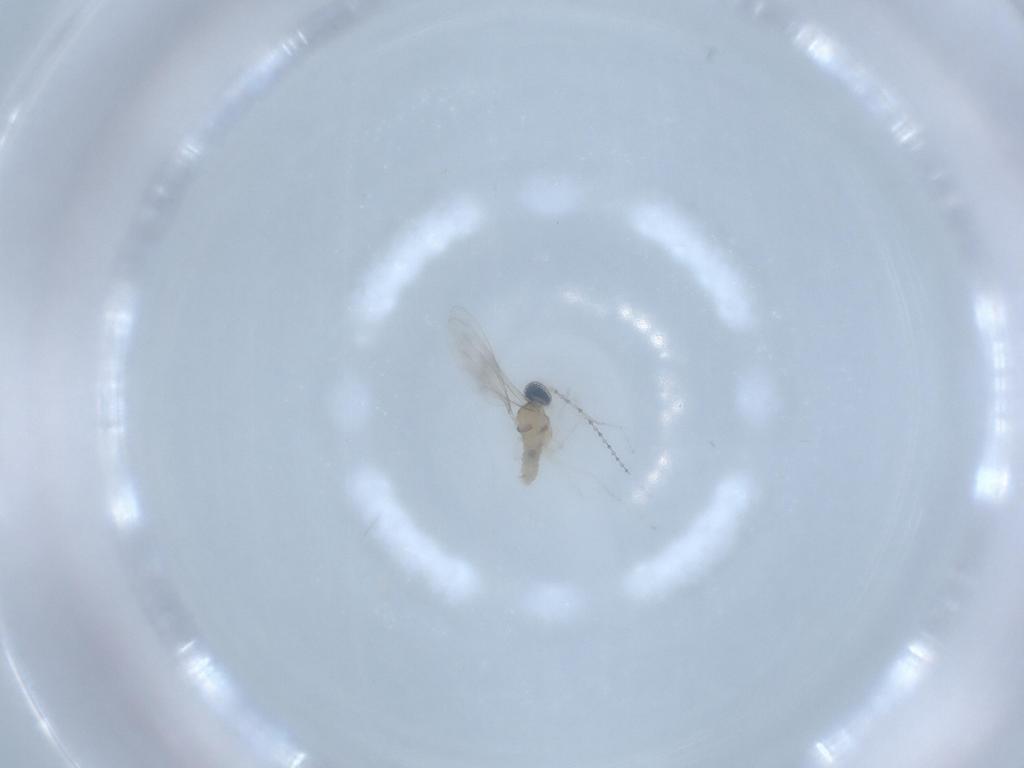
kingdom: Animalia
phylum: Arthropoda
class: Insecta
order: Diptera
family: Cecidomyiidae
